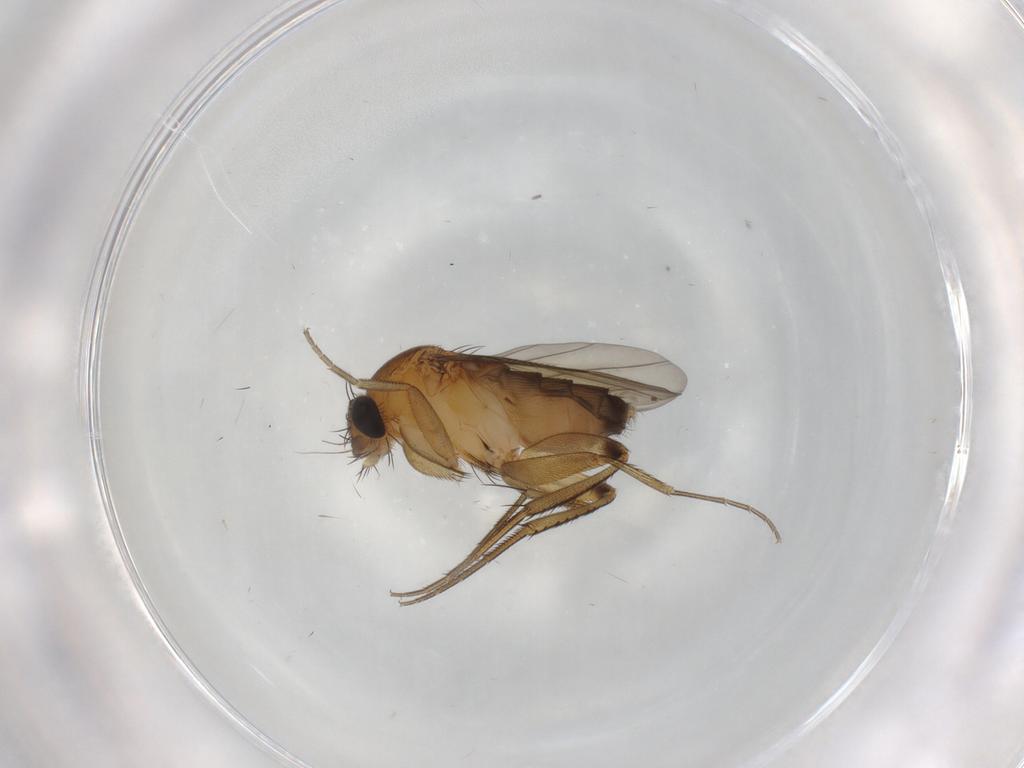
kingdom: Animalia
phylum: Arthropoda
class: Insecta
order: Diptera
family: Phoridae
